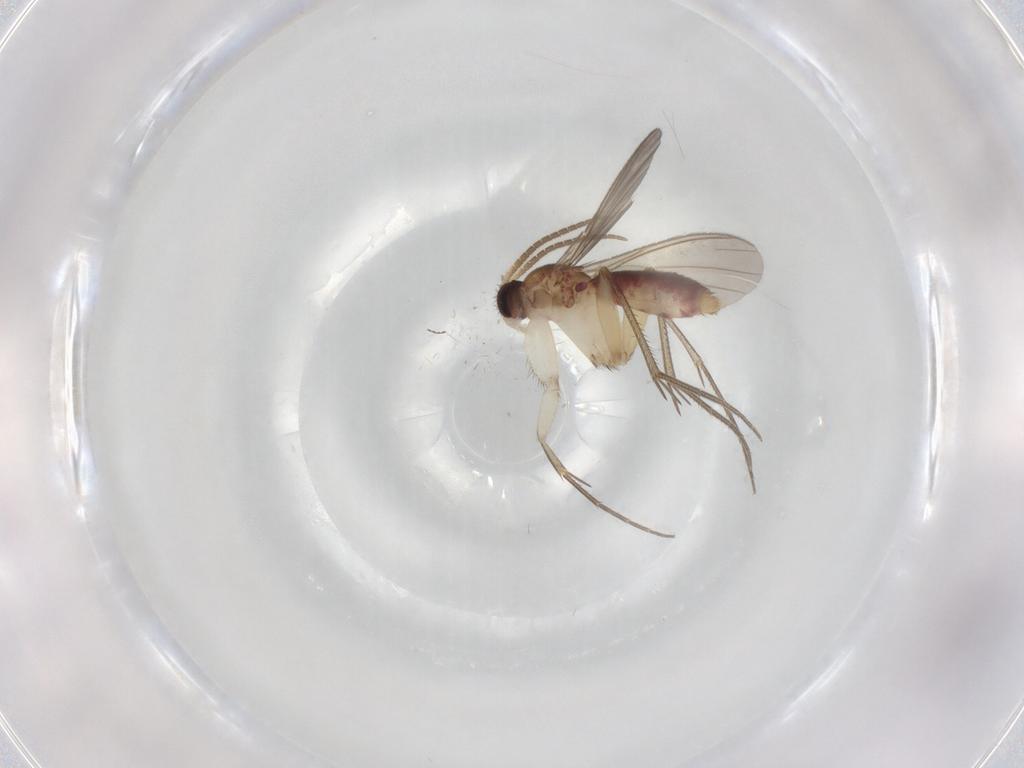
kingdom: Animalia
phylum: Arthropoda
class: Insecta
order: Diptera
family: Mycetophilidae
